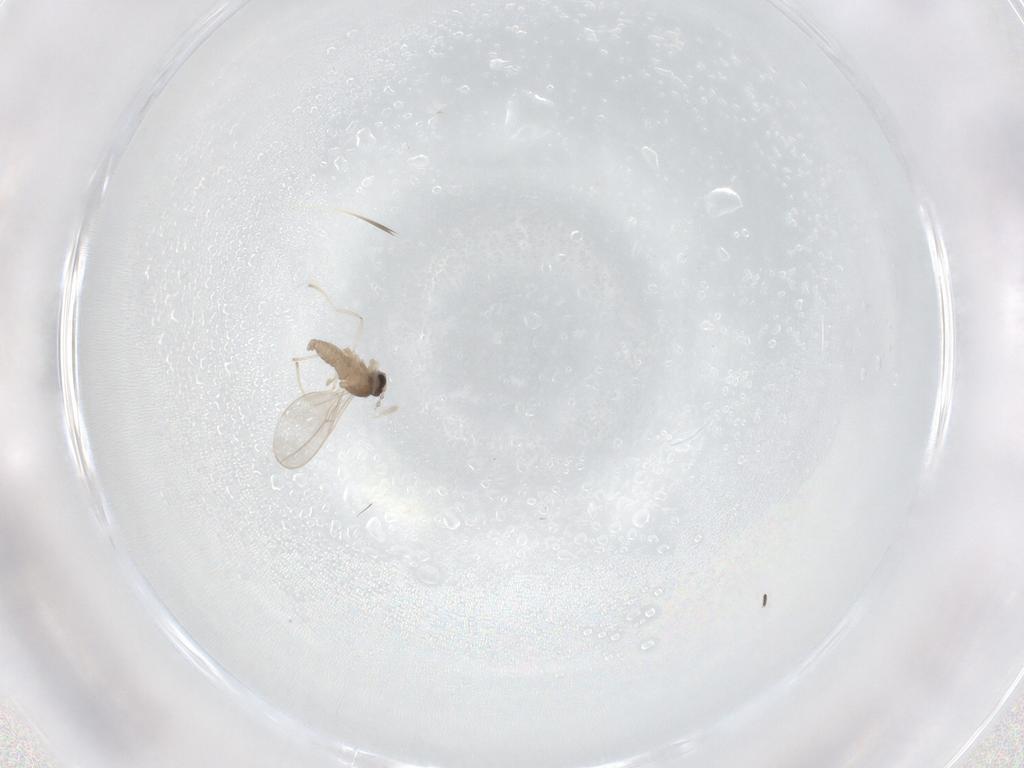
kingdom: Animalia
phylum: Arthropoda
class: Insecta
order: Diptera
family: Cecidomyiidae
